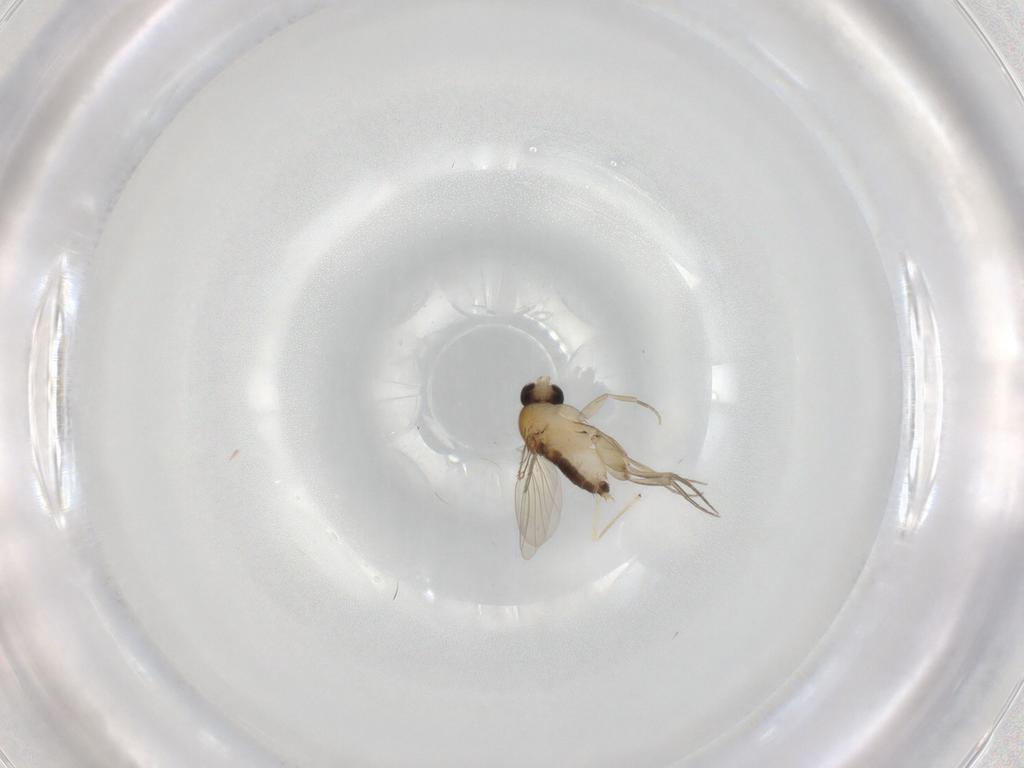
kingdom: Animalia
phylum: Arthropoda
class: Insecta
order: Diptera
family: Phoridae
